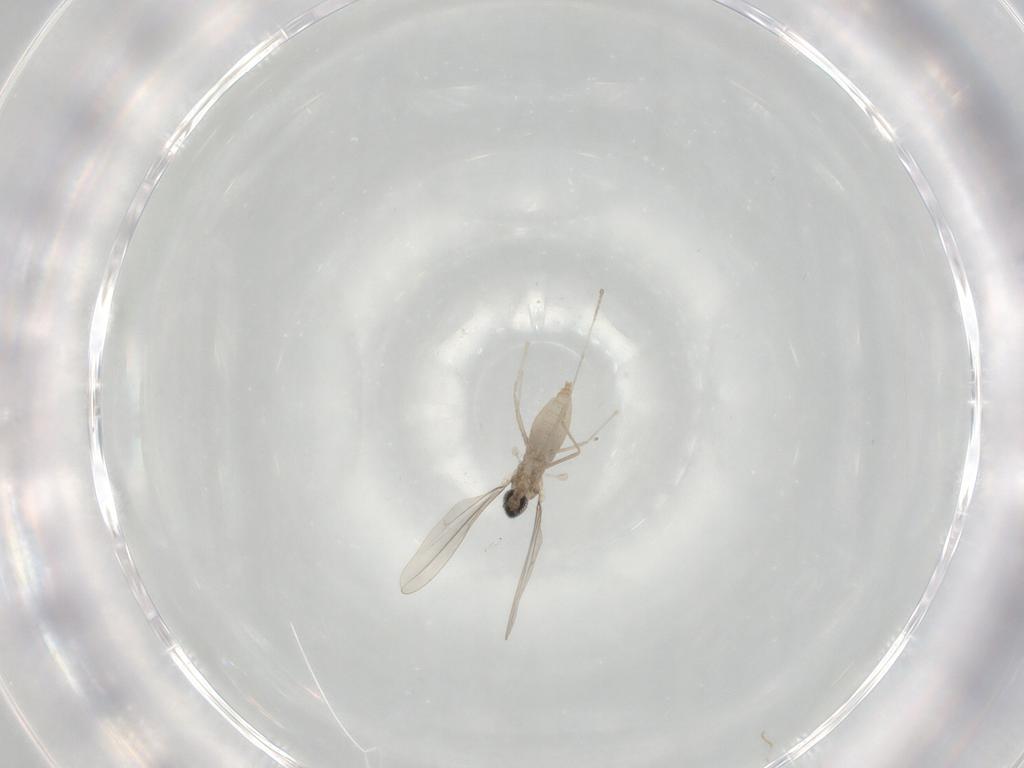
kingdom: Animalia
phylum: Arthropoda
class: Insecta
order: Diptera
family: Cecidomyiidae
